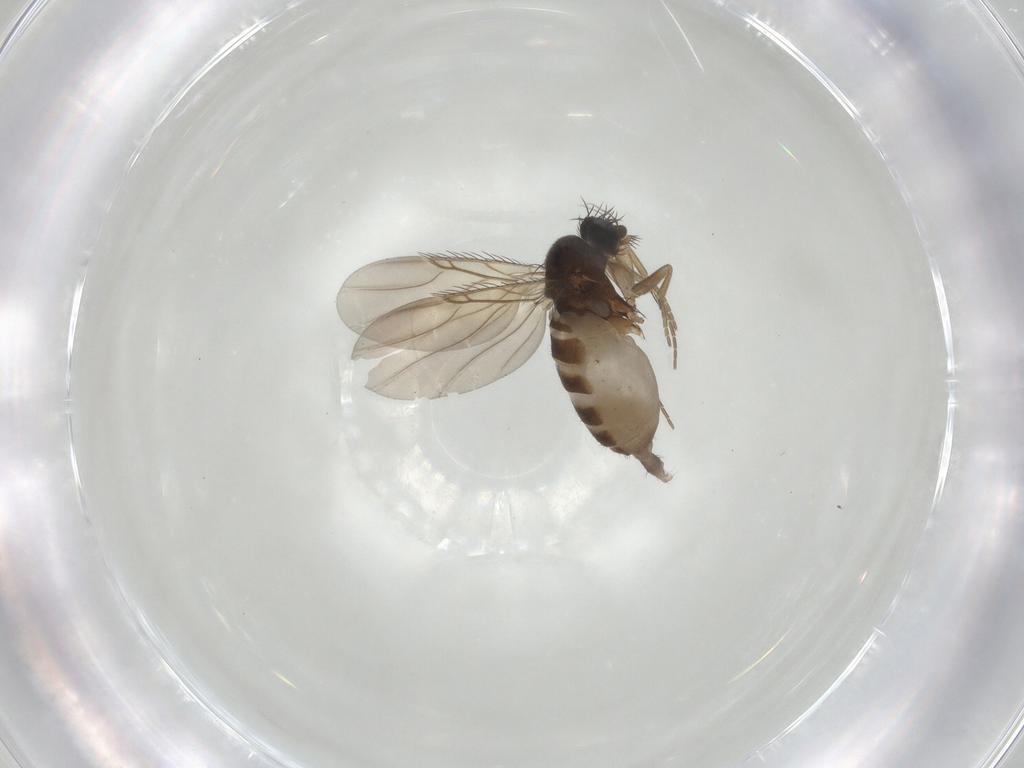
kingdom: Animalia
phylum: Arthropoda
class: Insecta
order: Diptera
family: Phoridae
